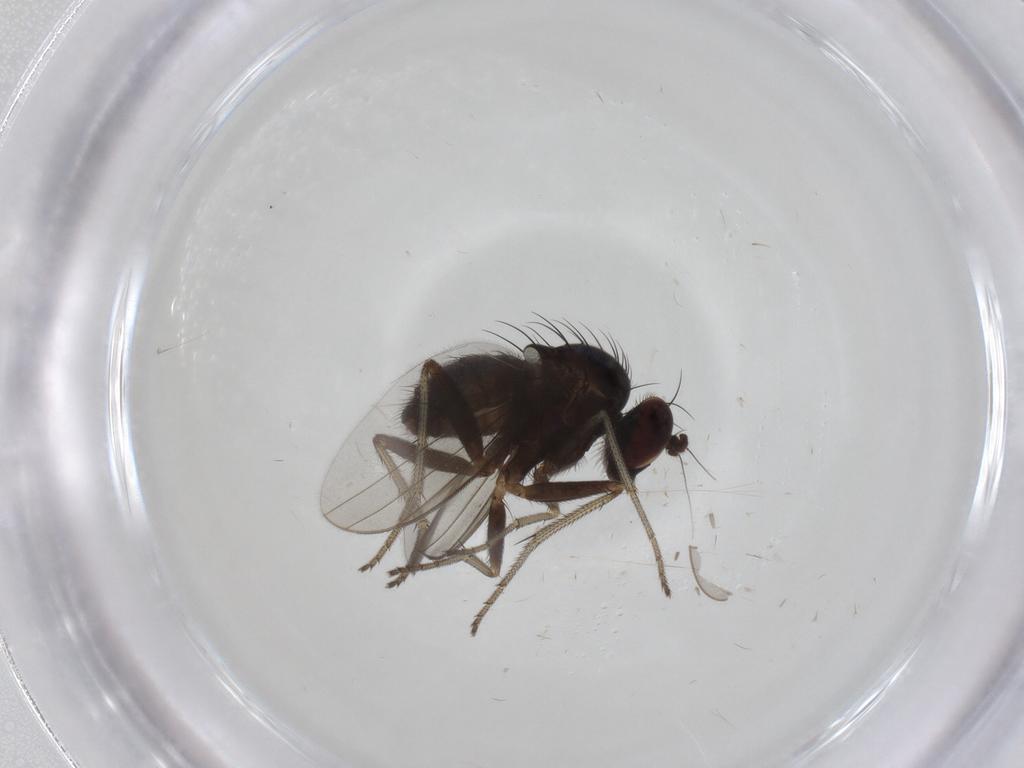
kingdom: Animalia
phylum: Arthropoda
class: Insecta
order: Diptera
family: Dolichopodidae
